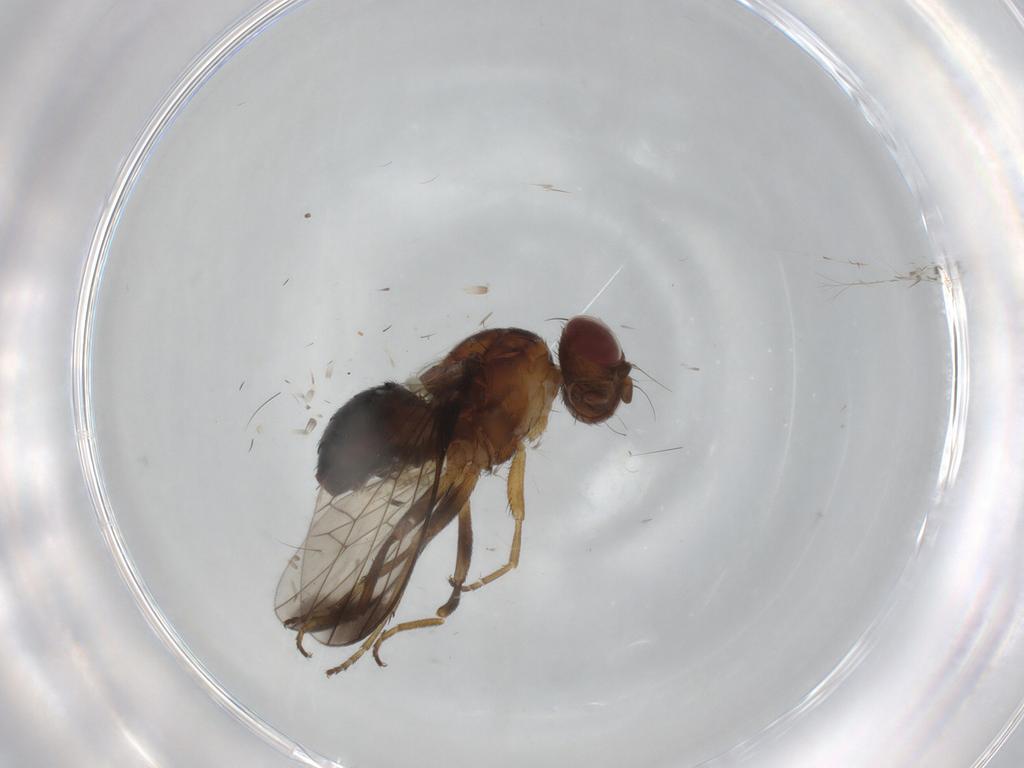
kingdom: Animalia
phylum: Arthropoda
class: Insecta
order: Diptera
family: Piophilidae
